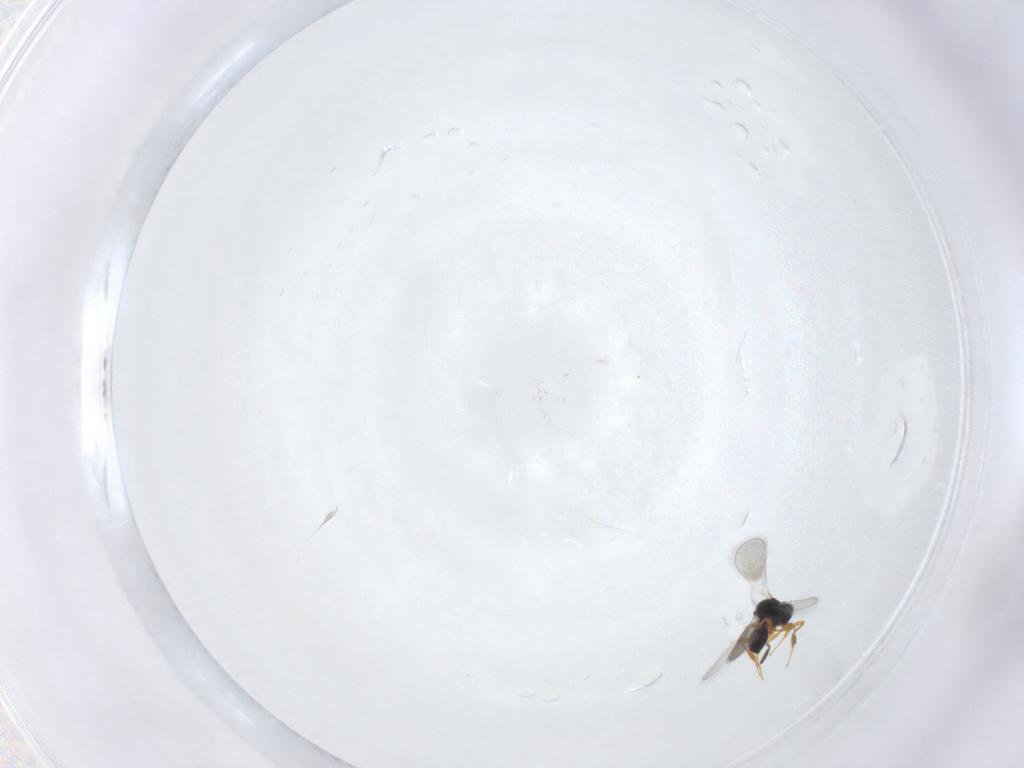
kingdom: Animalia
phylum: Arthropoda
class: Insecta
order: Hymenoptera
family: Platygastridae
